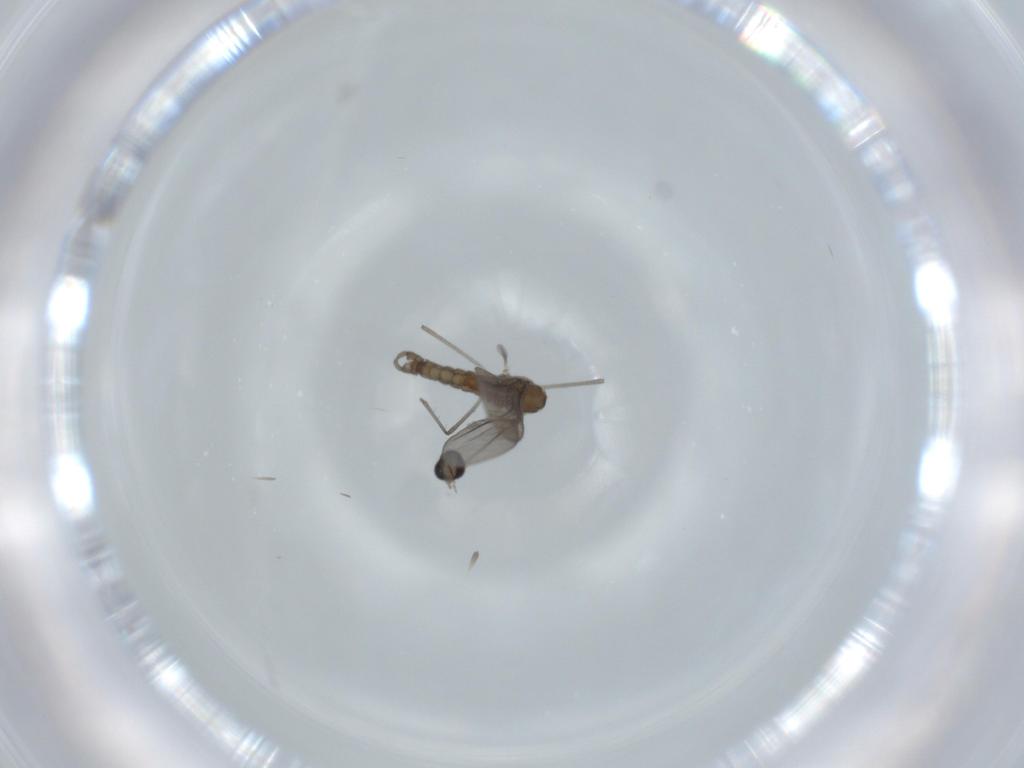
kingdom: Animalia
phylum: Arthropoda
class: Insecta
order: Diptera
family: Cecidomyiidae
